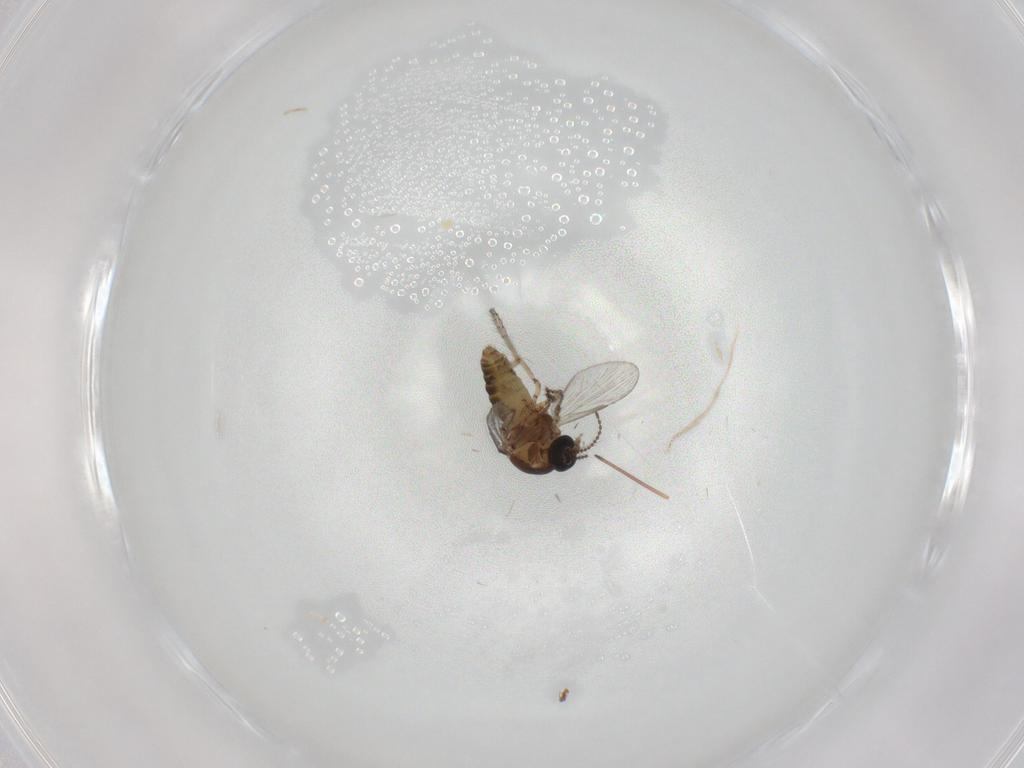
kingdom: Animalia
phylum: Arthropoda
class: Insecta
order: Diptera
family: Ceratopogonidae
